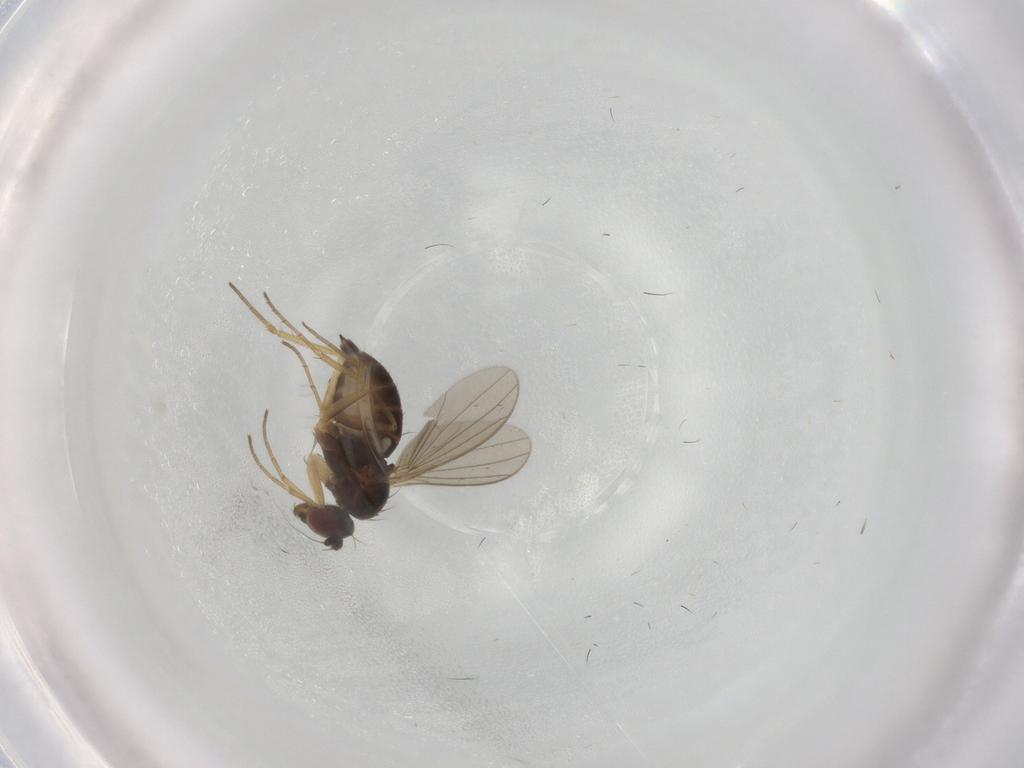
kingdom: Animalia
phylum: Arthropoda
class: Insecta
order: Diptera
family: Dolichopodidae
